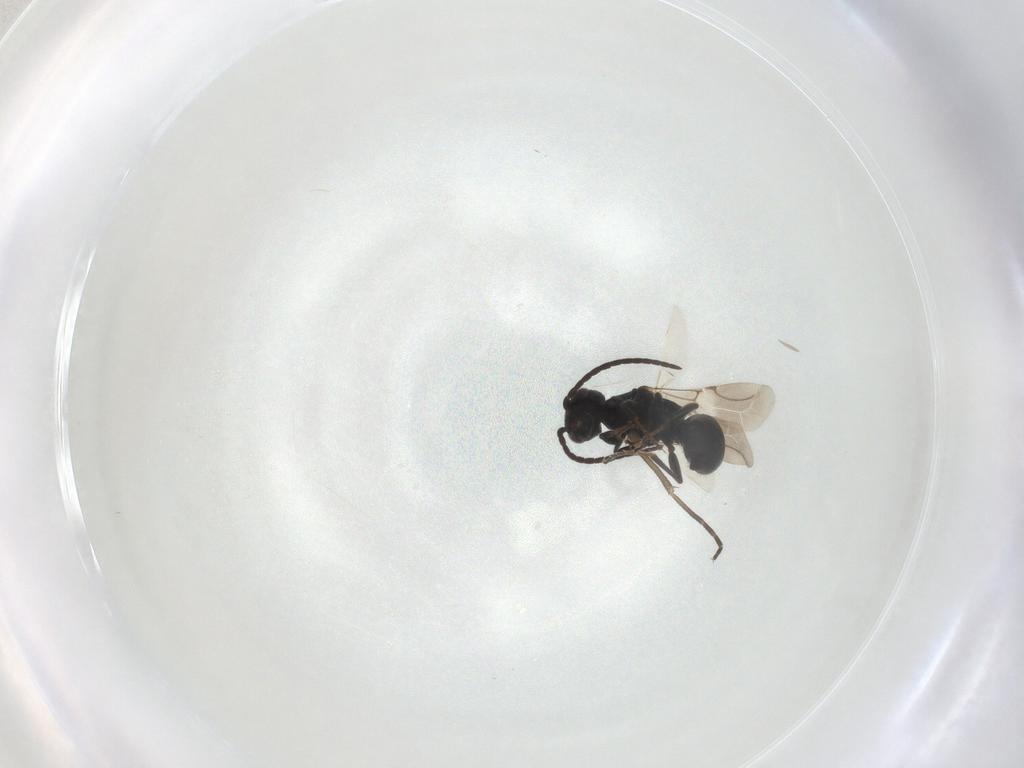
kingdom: Animalia
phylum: Arthropoda
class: Insecta
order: Hymenoptera
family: Bethylidae
